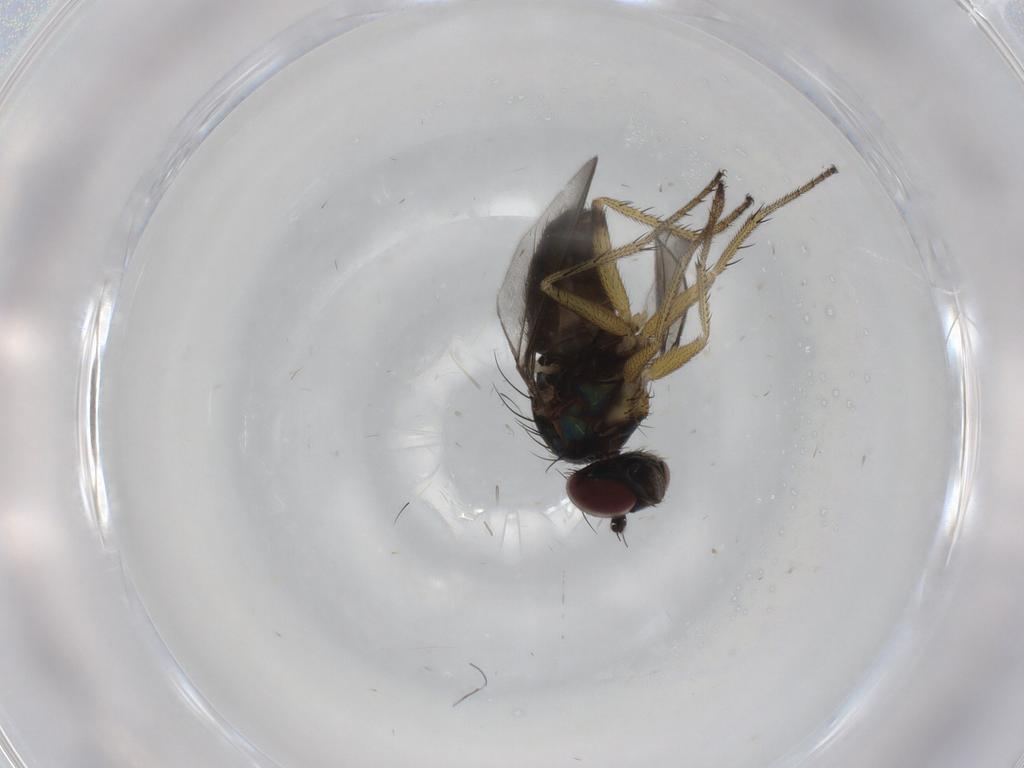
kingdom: Animalia
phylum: Arthropoda
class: Insecta
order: Diptera
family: Dolichopodidae
